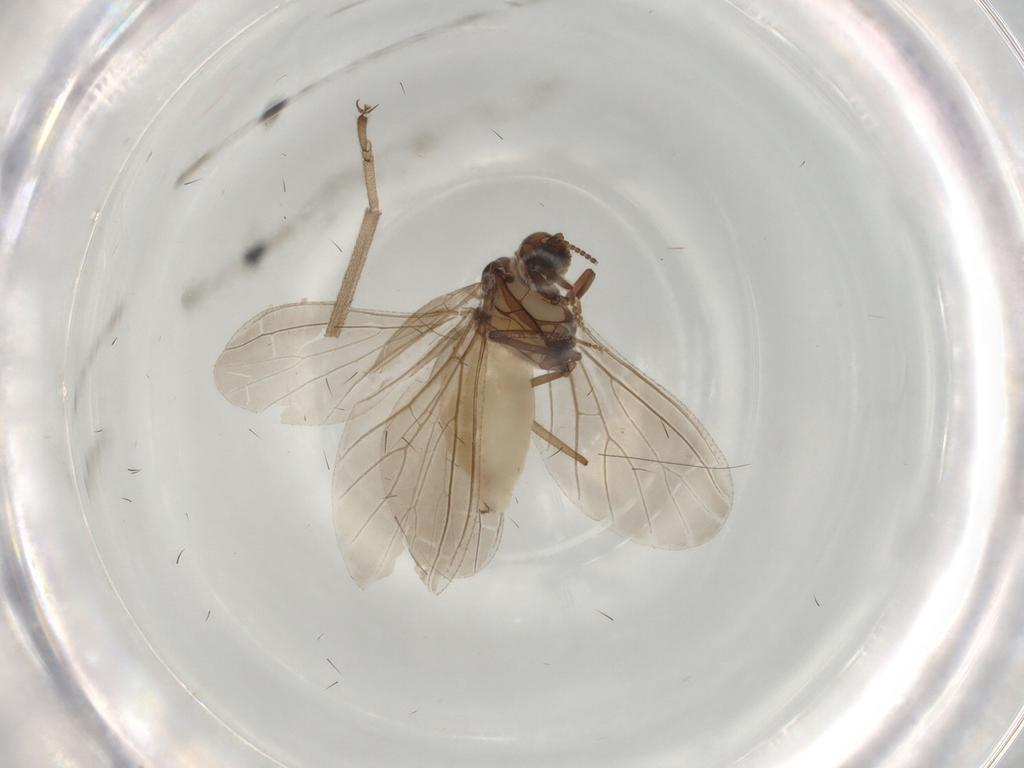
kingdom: Animalia
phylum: Arthropoda
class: Insecta
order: Neuroptera
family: Coniopterygidae
